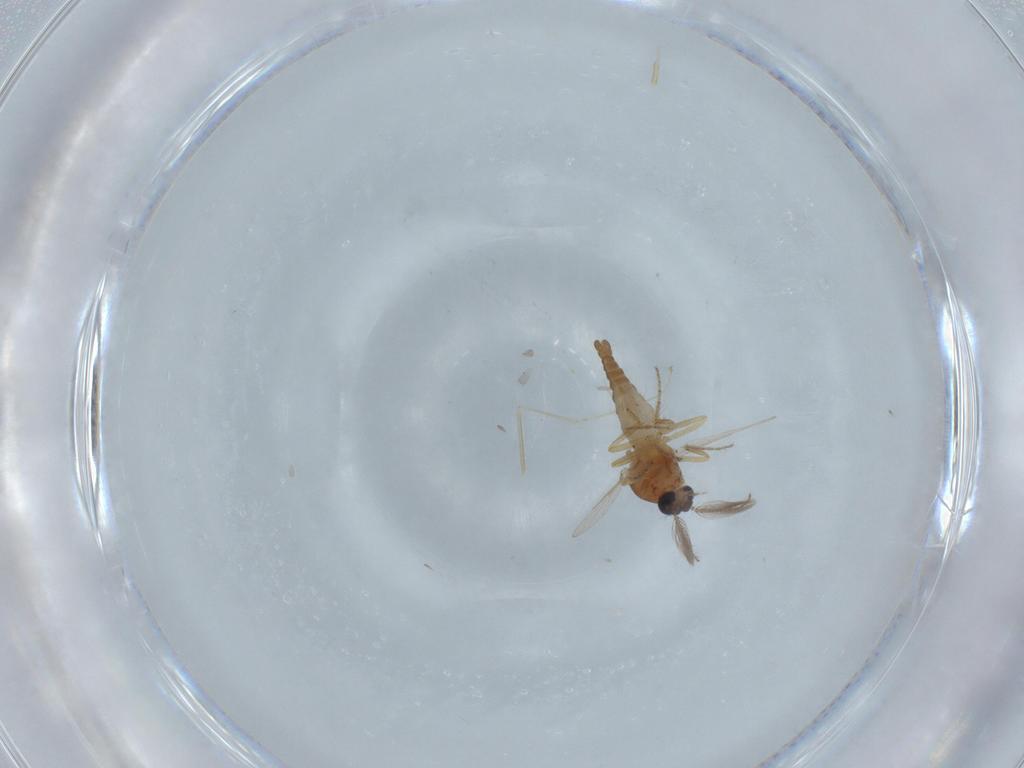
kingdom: Animalia
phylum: Arthropoda
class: Insecta
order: Diptera
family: Ceratopogonidae
